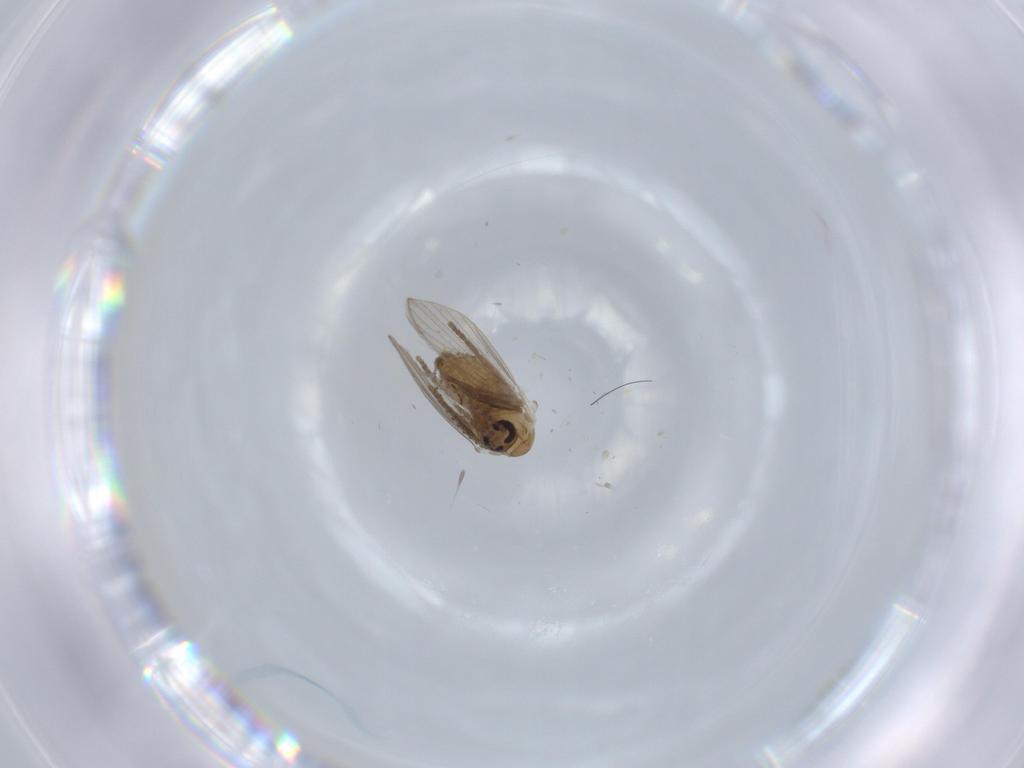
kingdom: Animalia
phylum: Arthropoda
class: Insecta
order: Diptera
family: Psychodidae
